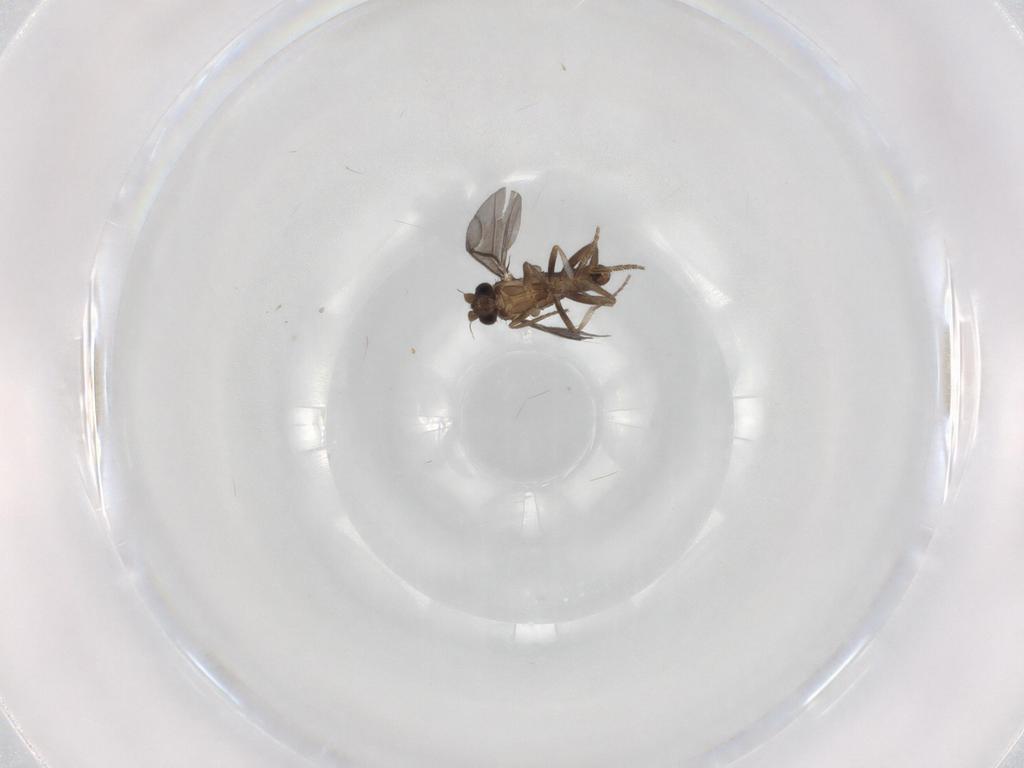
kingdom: Animalia
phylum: Arthropoda
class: Insecta
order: Diptera
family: Phoridae
